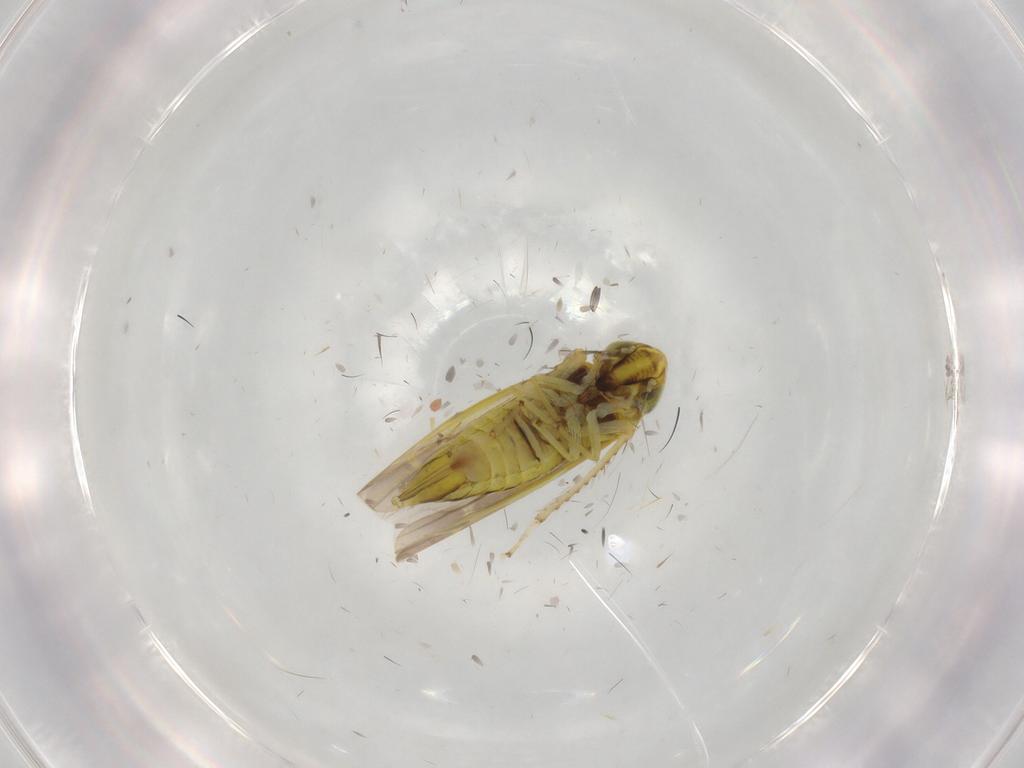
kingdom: Animalia
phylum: Arthropoda
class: Insecta
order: Hemiptera
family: Cicadellidae
